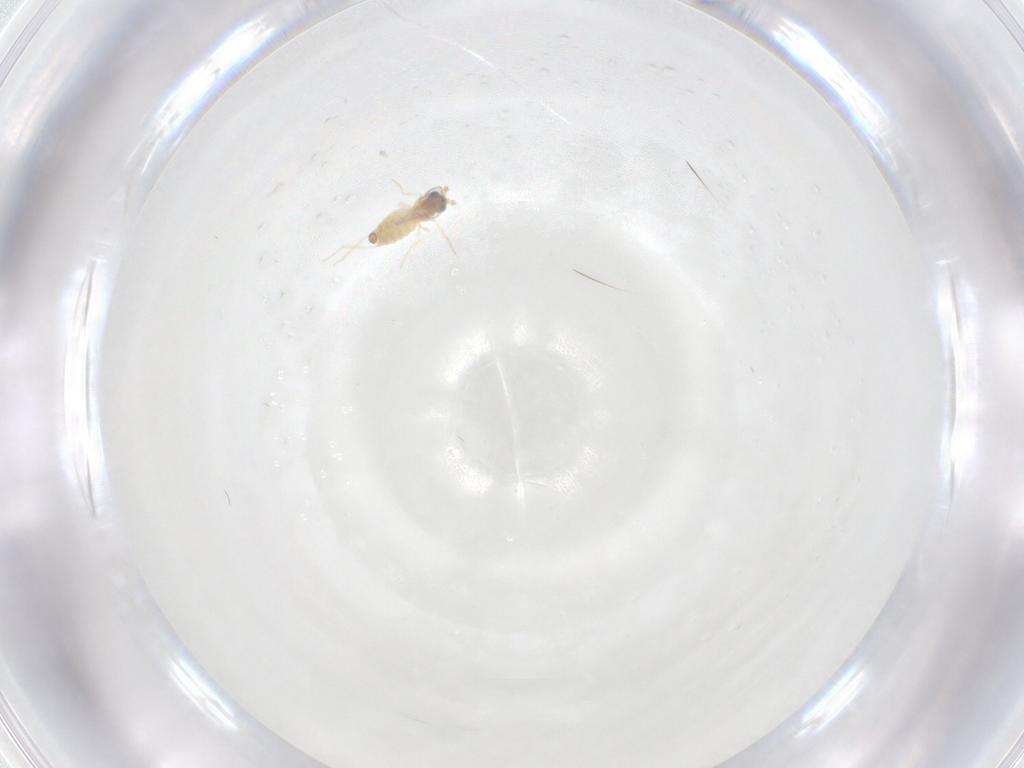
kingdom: Animalia
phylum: Arthropoda
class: Insecta
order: Diptera
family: Chironomidae
